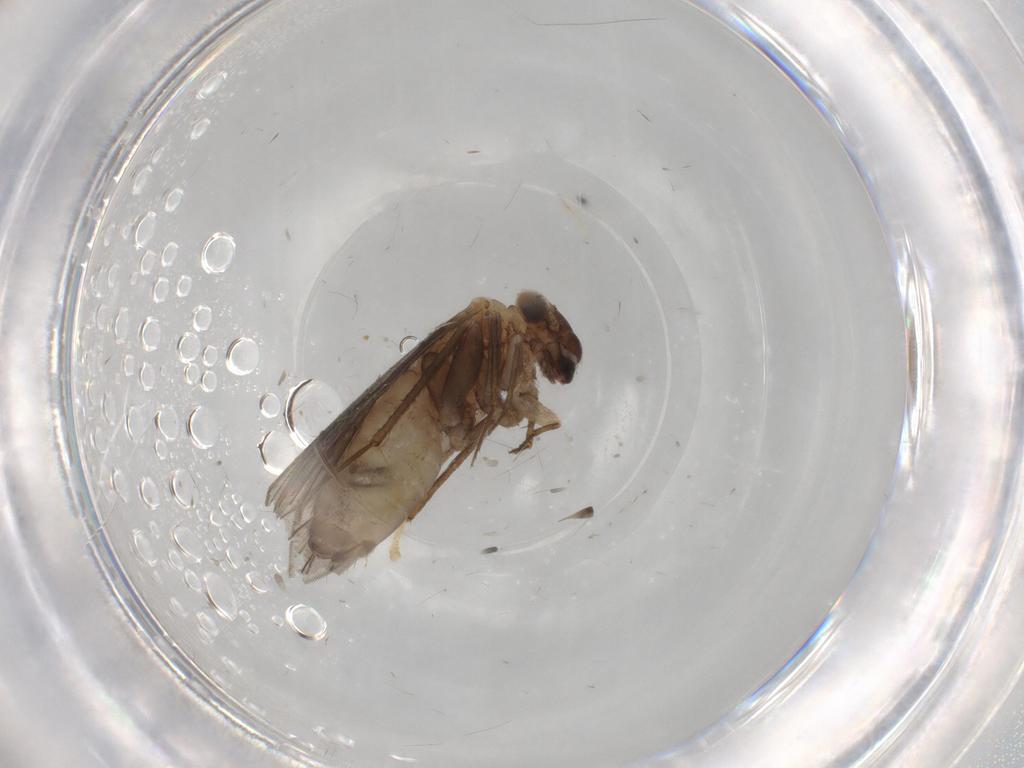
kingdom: Animalia
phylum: Arthropoda
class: Insecta
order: Psocodea
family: Lepidopsocidae
